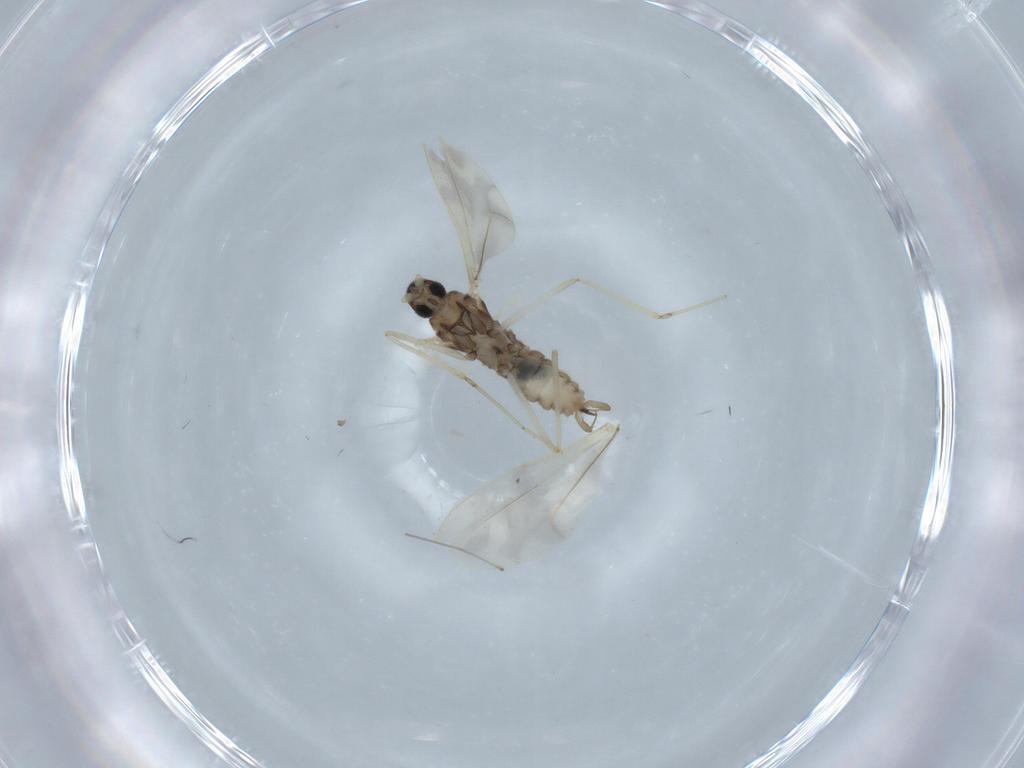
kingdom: Animalia
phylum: Arthropoda
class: Insecta
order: Diptera
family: Cecidomyiidae
